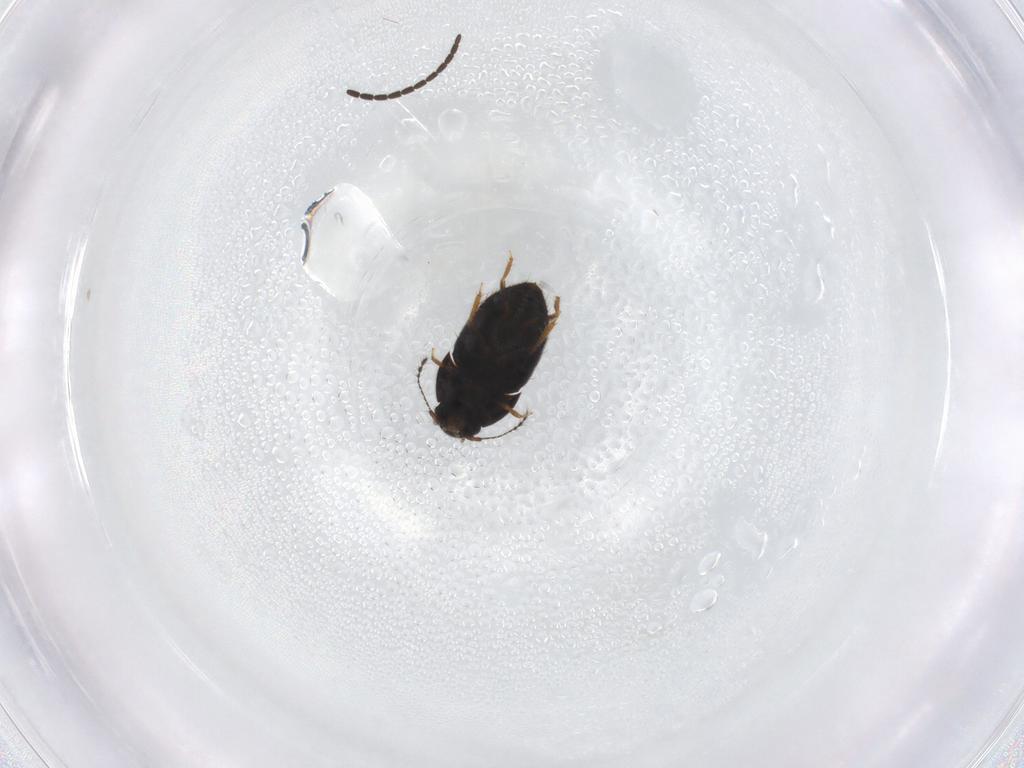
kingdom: Animalia
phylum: Arthropoda
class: Insecta
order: Coleoptera
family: Ptiliidae
